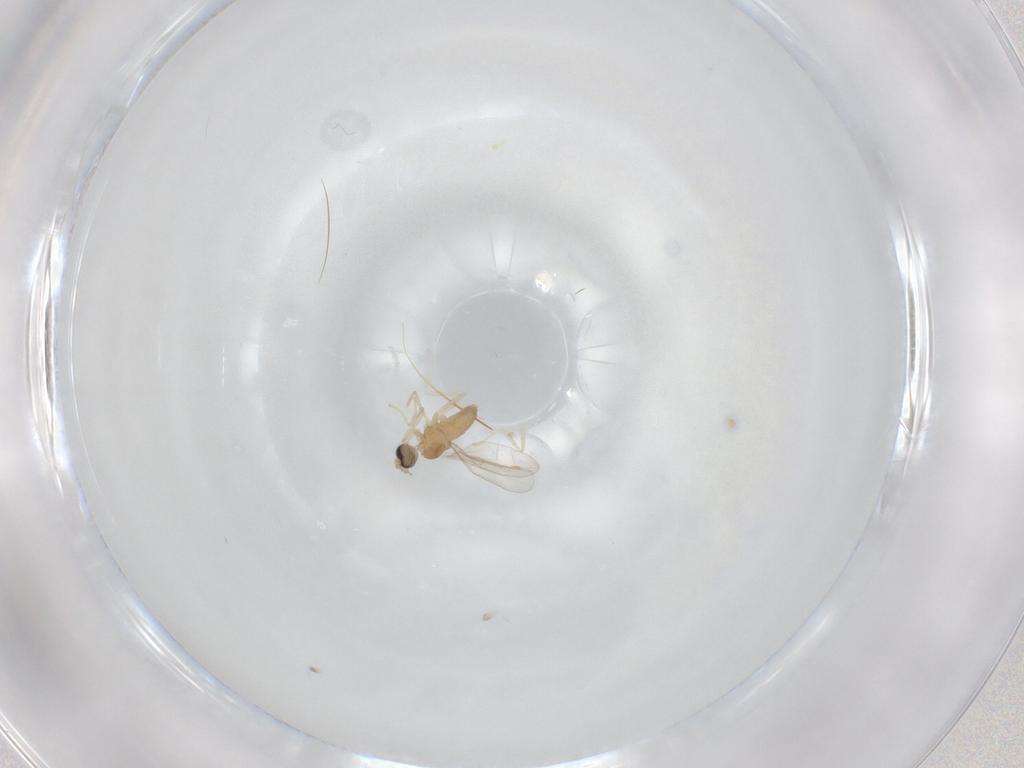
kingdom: Animalia
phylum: Arthropoda
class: Insecta
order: Diptera
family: Cecidomyiidae
